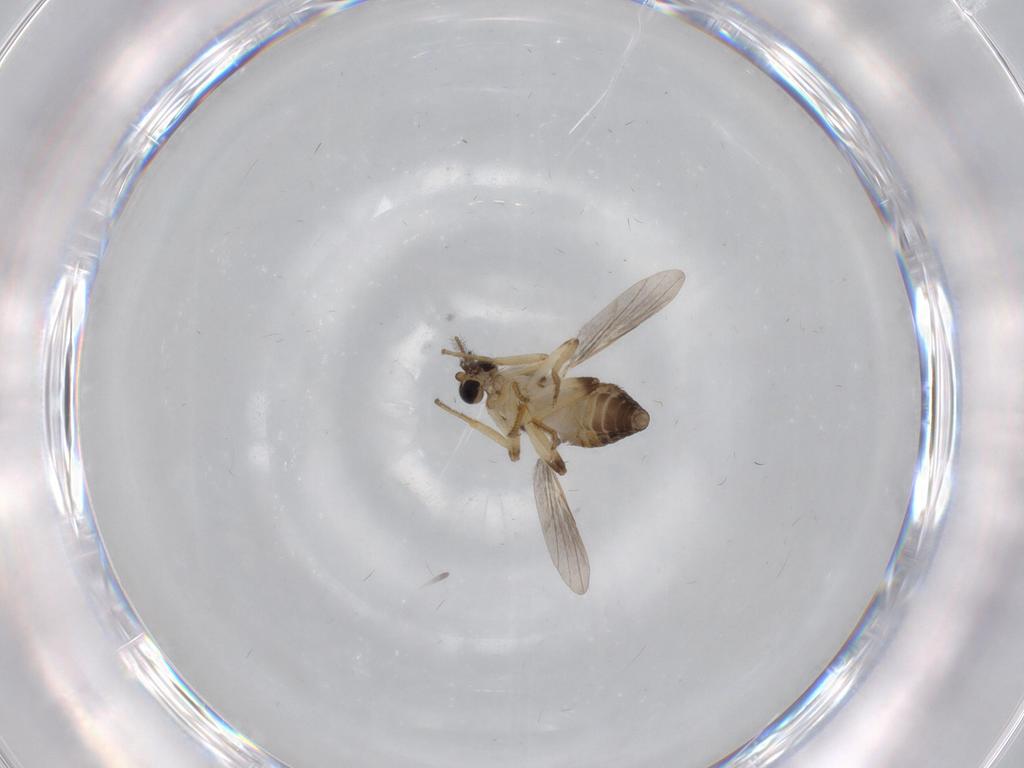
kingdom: Animalia
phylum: Arthropoda
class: Insecta
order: Diptera
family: Ceratopogonidae
